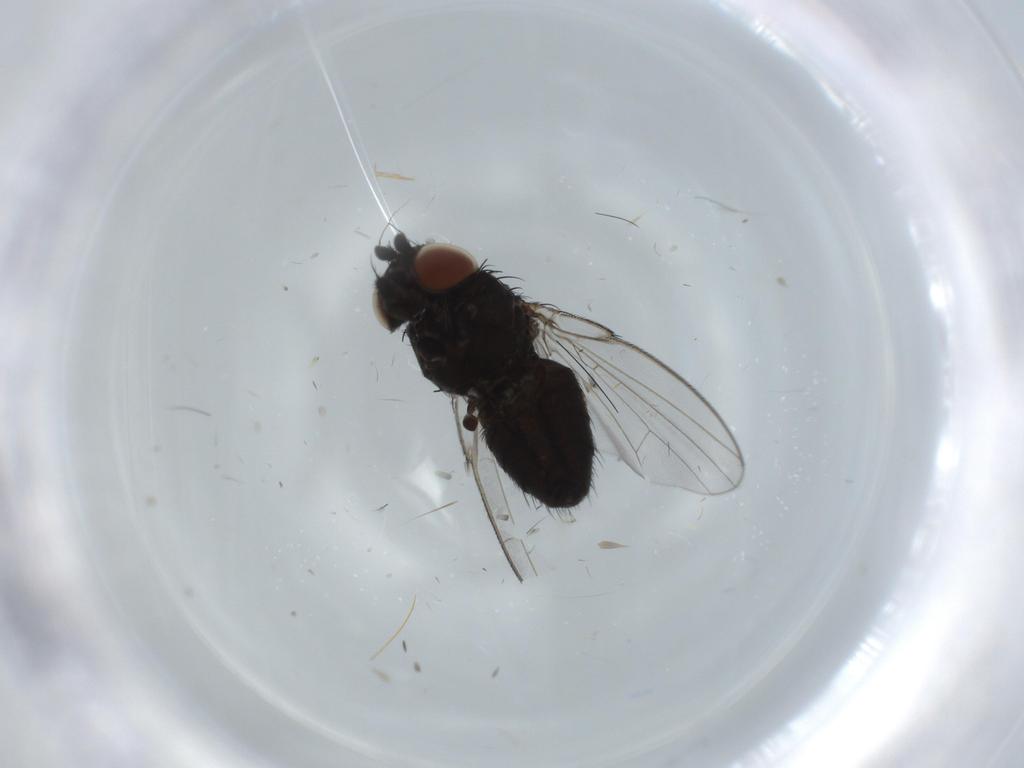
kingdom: Animalia
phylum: Arthropoda
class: Insecta
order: Diptera
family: Milichiidae
